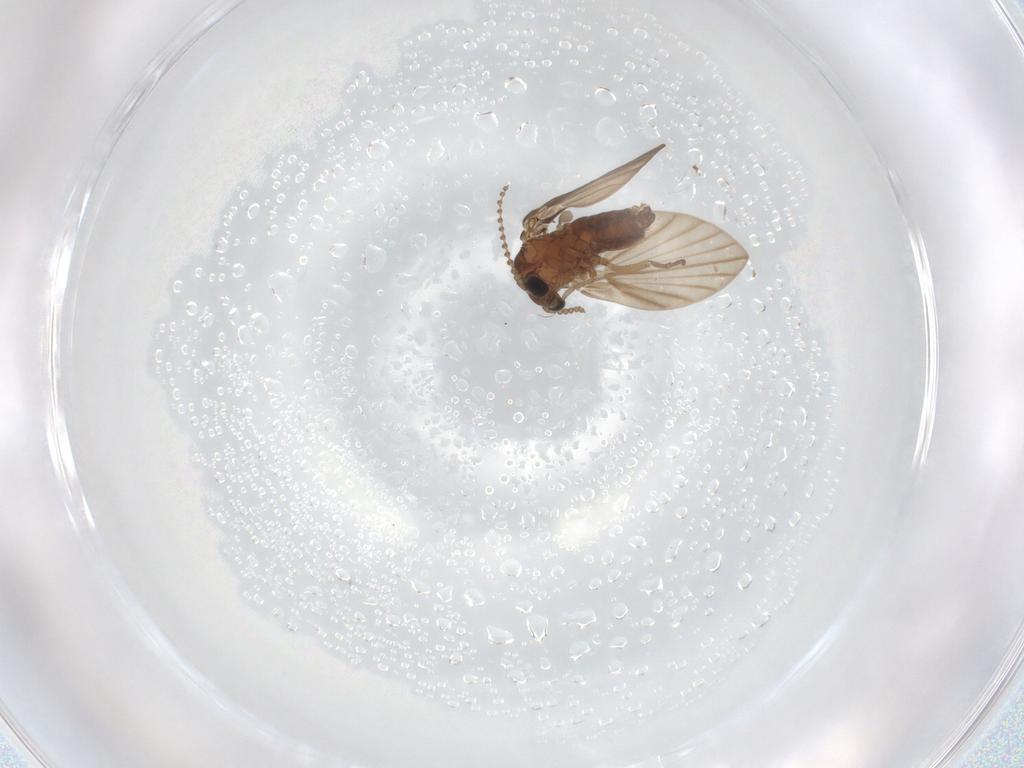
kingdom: Animalia
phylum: Arthropoda
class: Insecta
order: Diptera
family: Psychodidae
